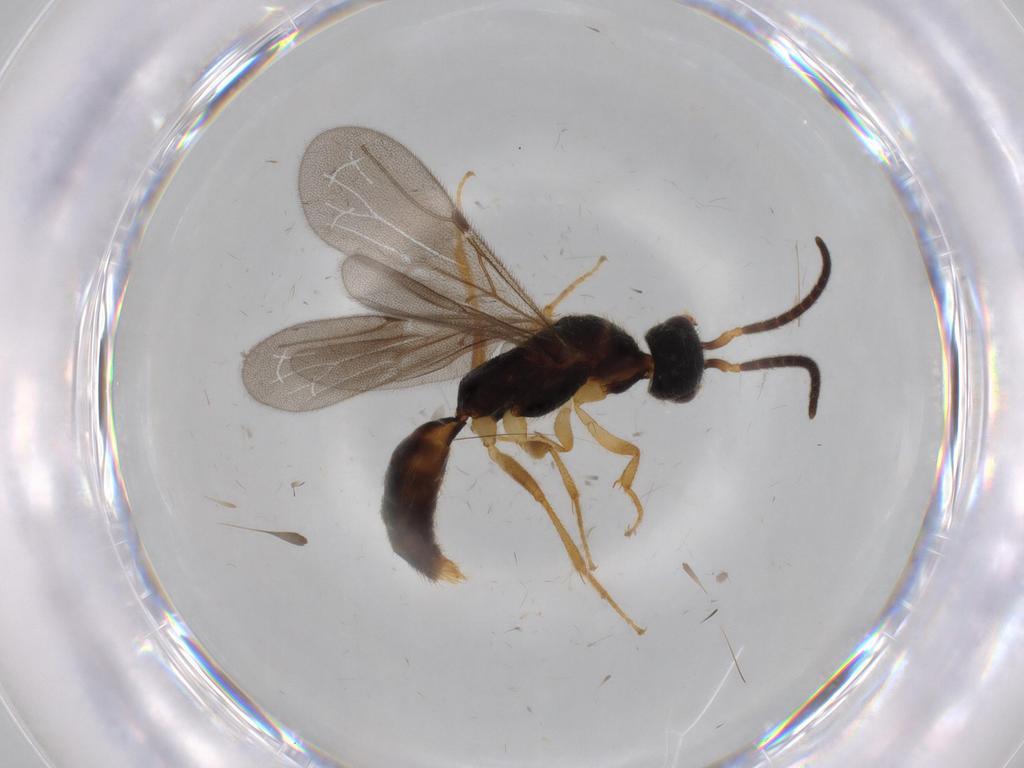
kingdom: Animalia
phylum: Arthropoda
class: Insecta
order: Hymenoptera
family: Bethylidae
